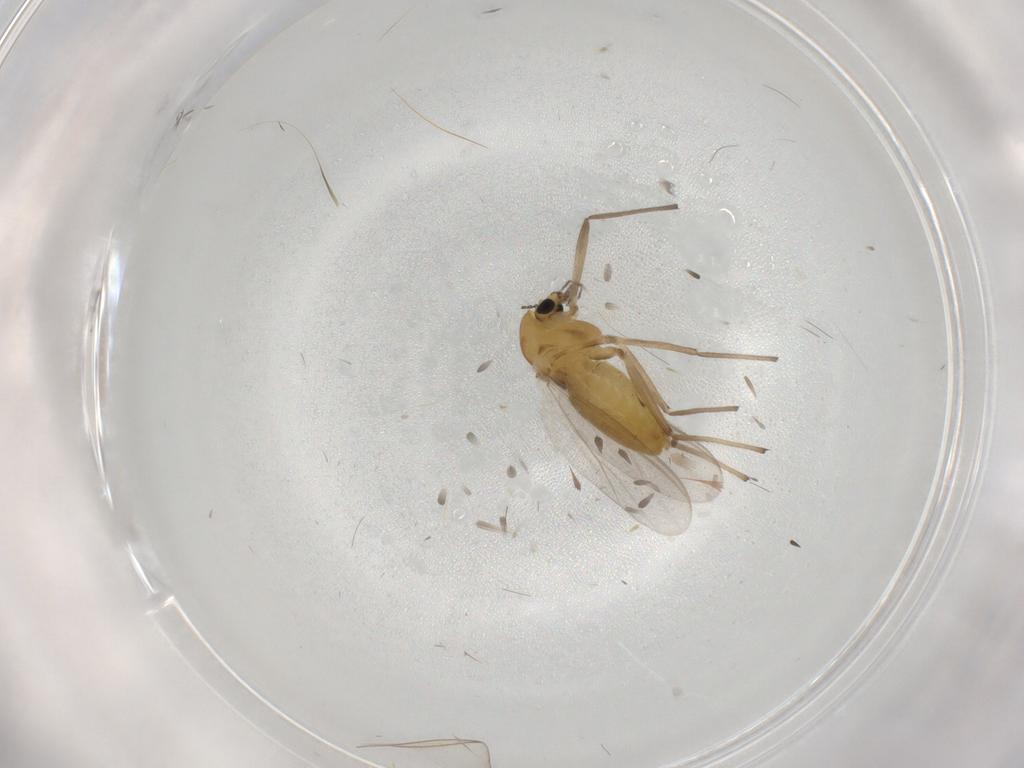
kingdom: Animalia
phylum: Arthropoda
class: Insecta
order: Diptera
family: Chironomidae
